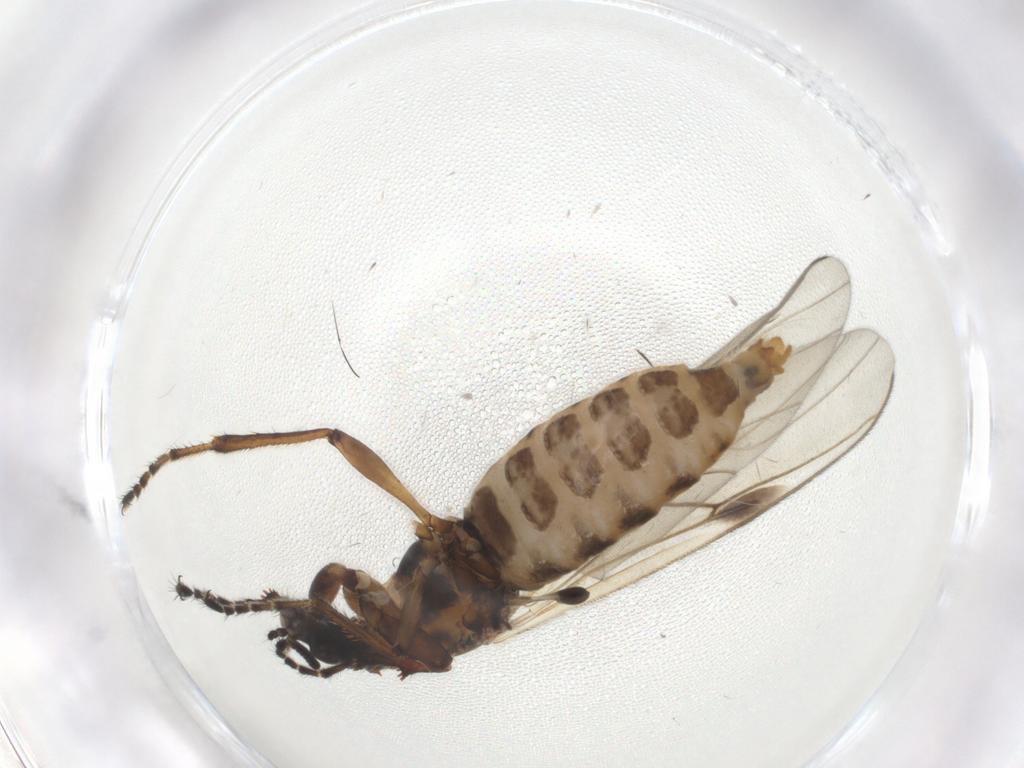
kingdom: Animalia
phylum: Arthropoda
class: Insecta
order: Diptera
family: Bibionidae
